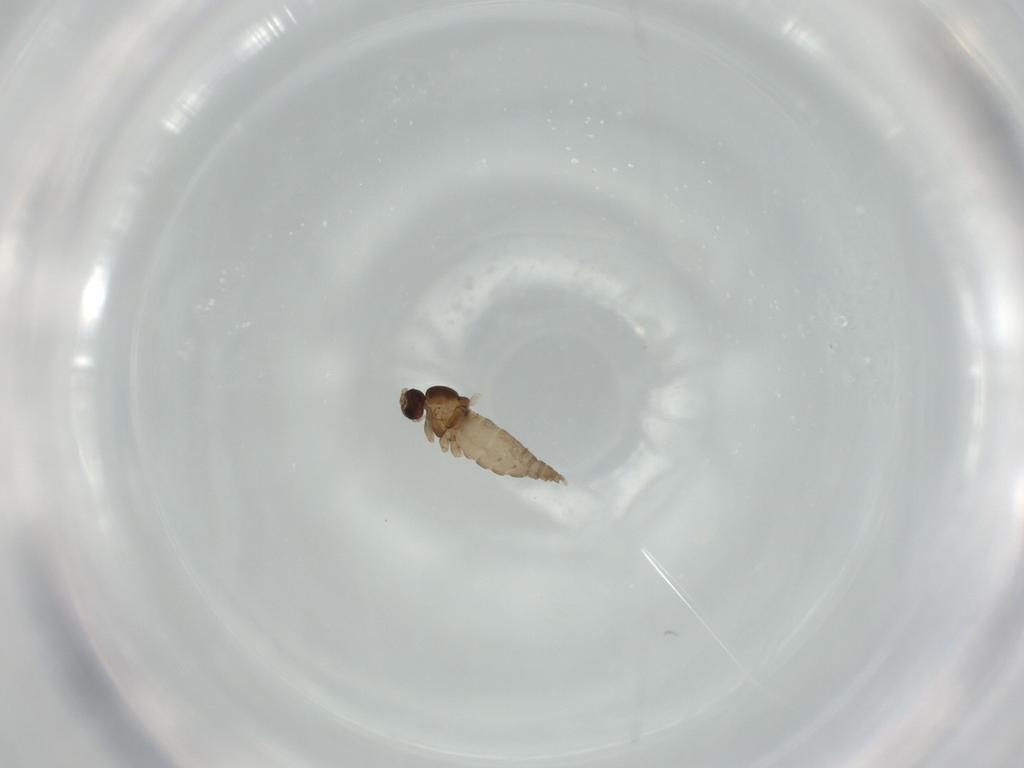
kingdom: Animalia
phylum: Arthropoda
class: Insecta
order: Diptera
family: Cecidomyiidae
